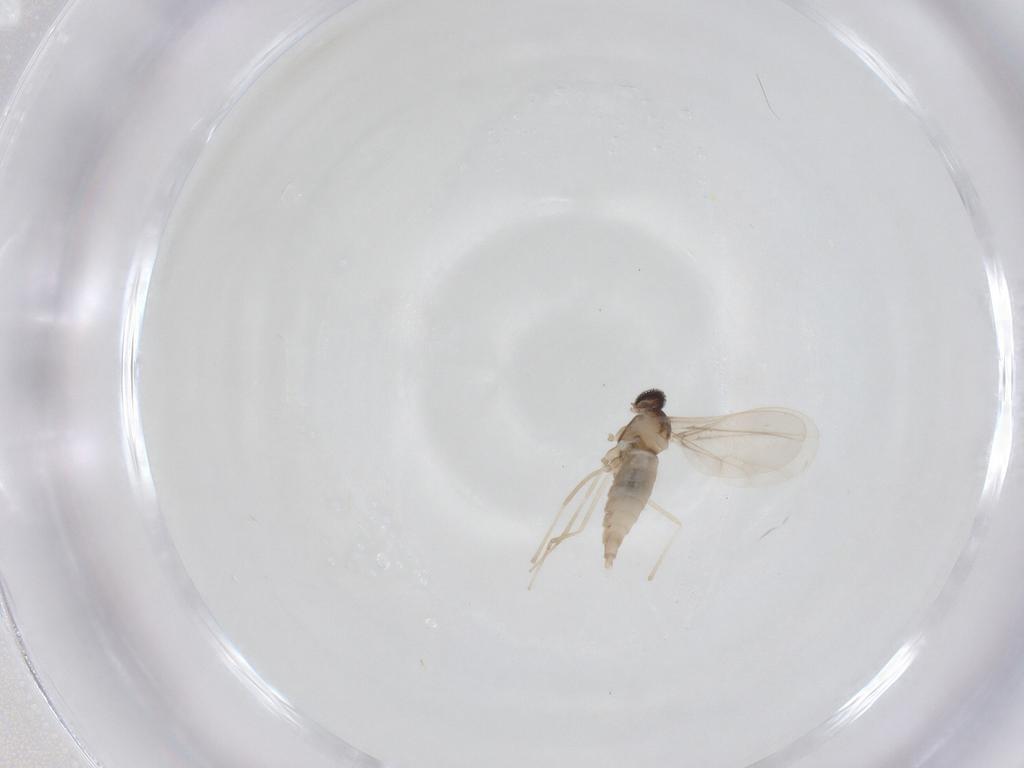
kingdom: Animalia
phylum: Arthropoda
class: Insecta
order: Diptera
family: Cecidomyiidae
